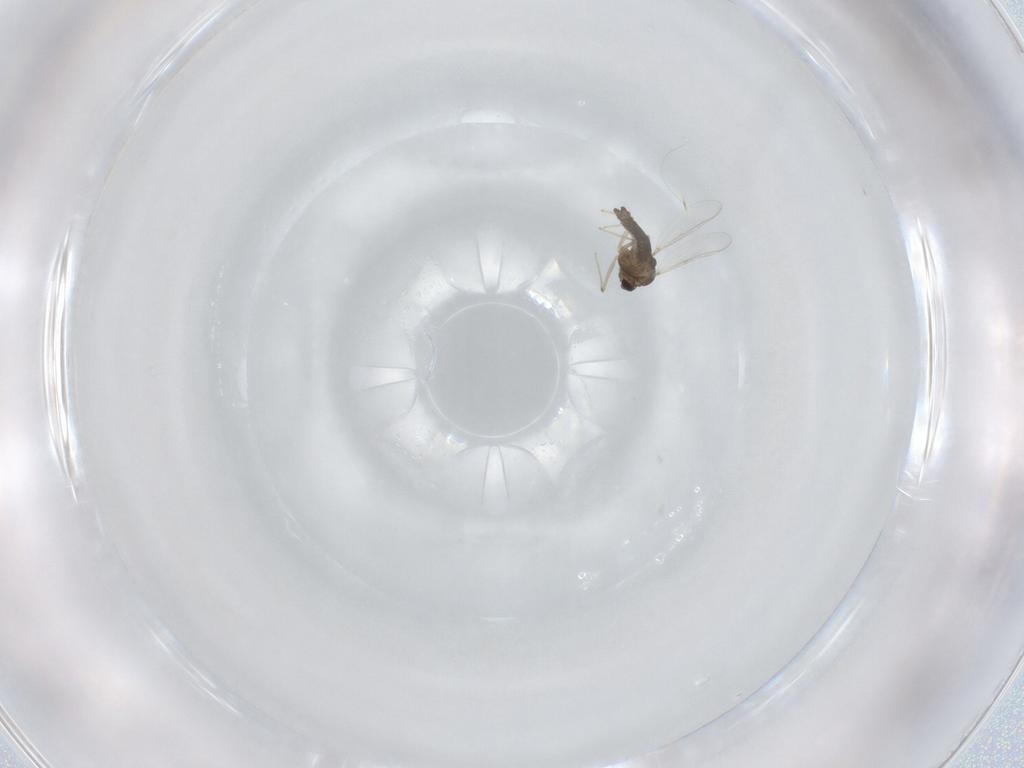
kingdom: Animalia
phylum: Arthropoda
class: Insecta
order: Diptera
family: Chironomidae
